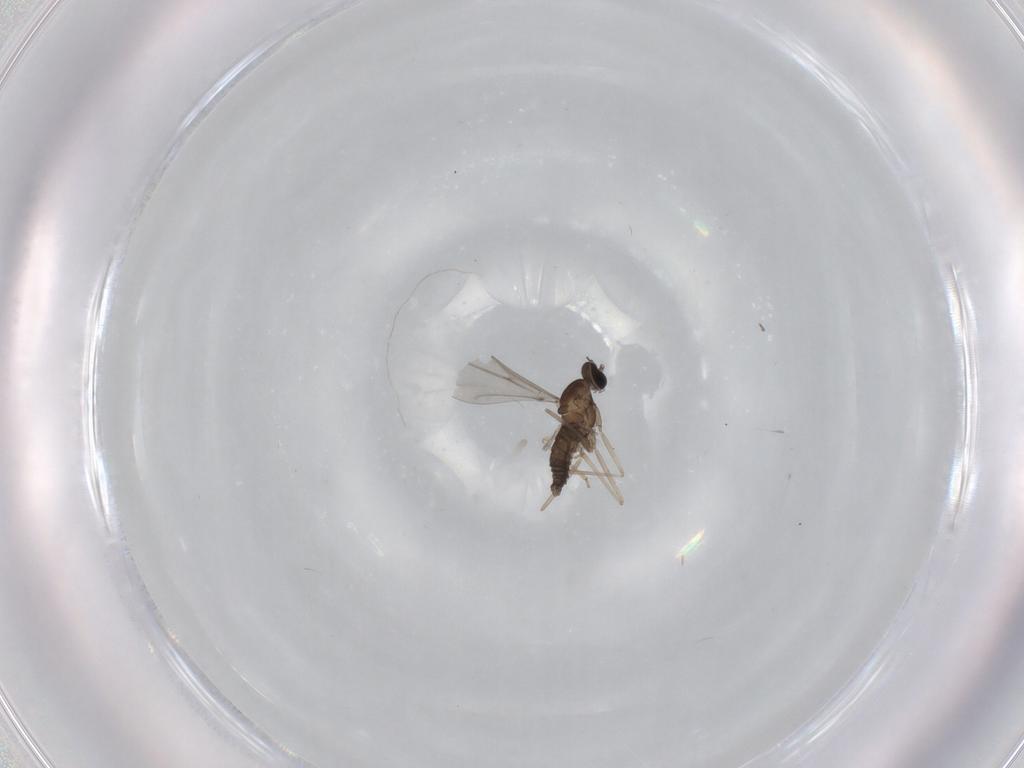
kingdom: Animalia
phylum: Arthropoda
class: Insecta
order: Diptera
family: Cecidomyiidae
